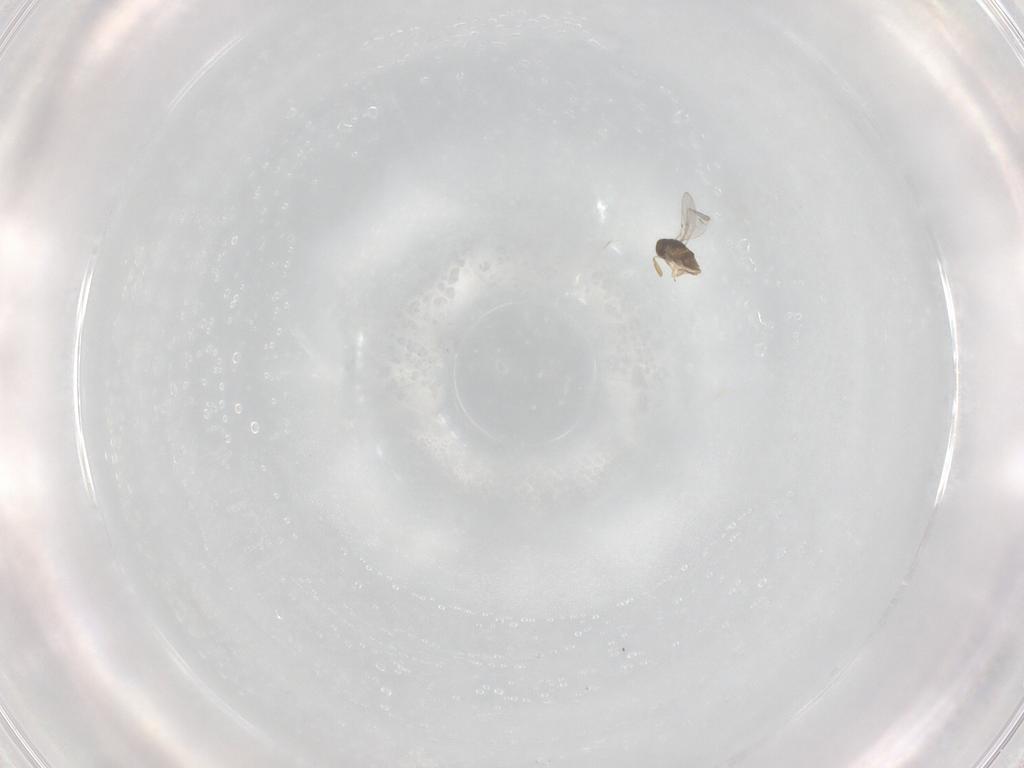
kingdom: Animalia
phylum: Arthropoda
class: Insecta
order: Hymenoptera
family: Encyrtidae
